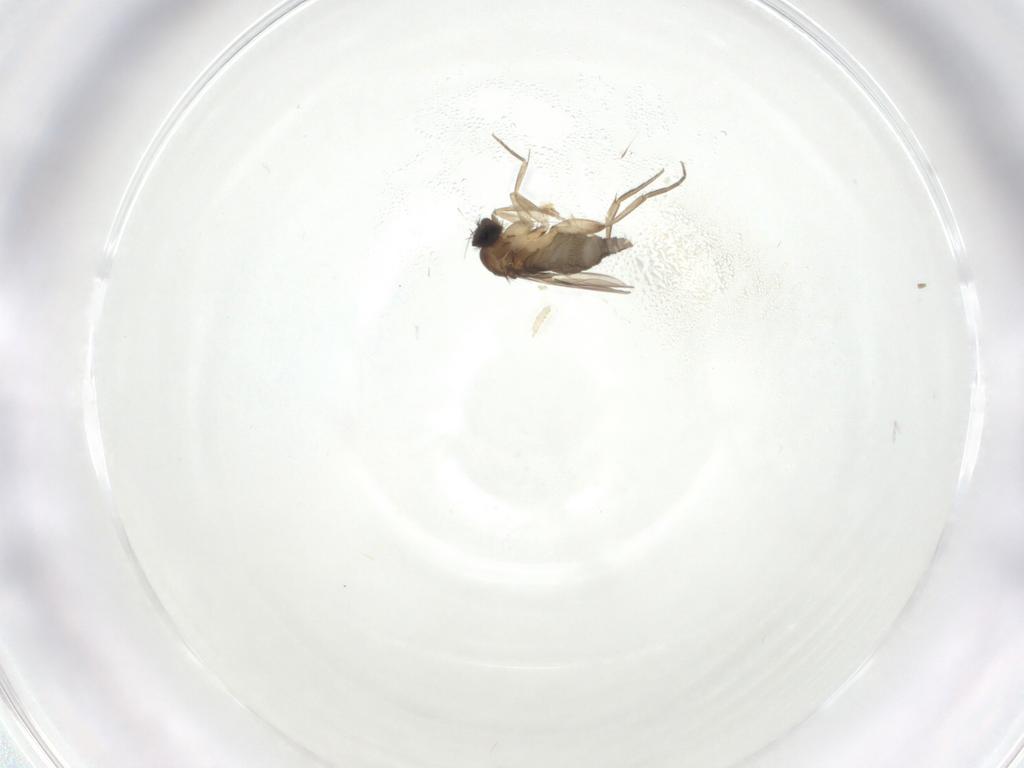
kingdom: Animalia
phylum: Arthropoda
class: Insecta
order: Diptera
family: Phoridae
